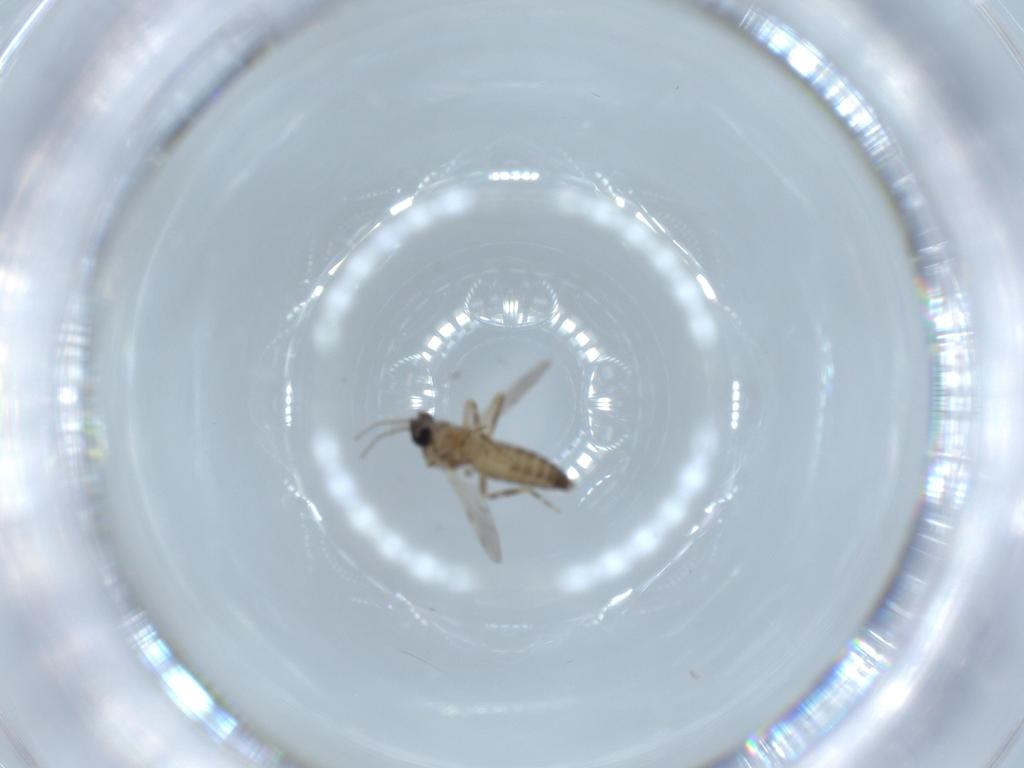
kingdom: Animalia
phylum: Arthropoda
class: Insecta
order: Diptera
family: Ceratopogonidae
